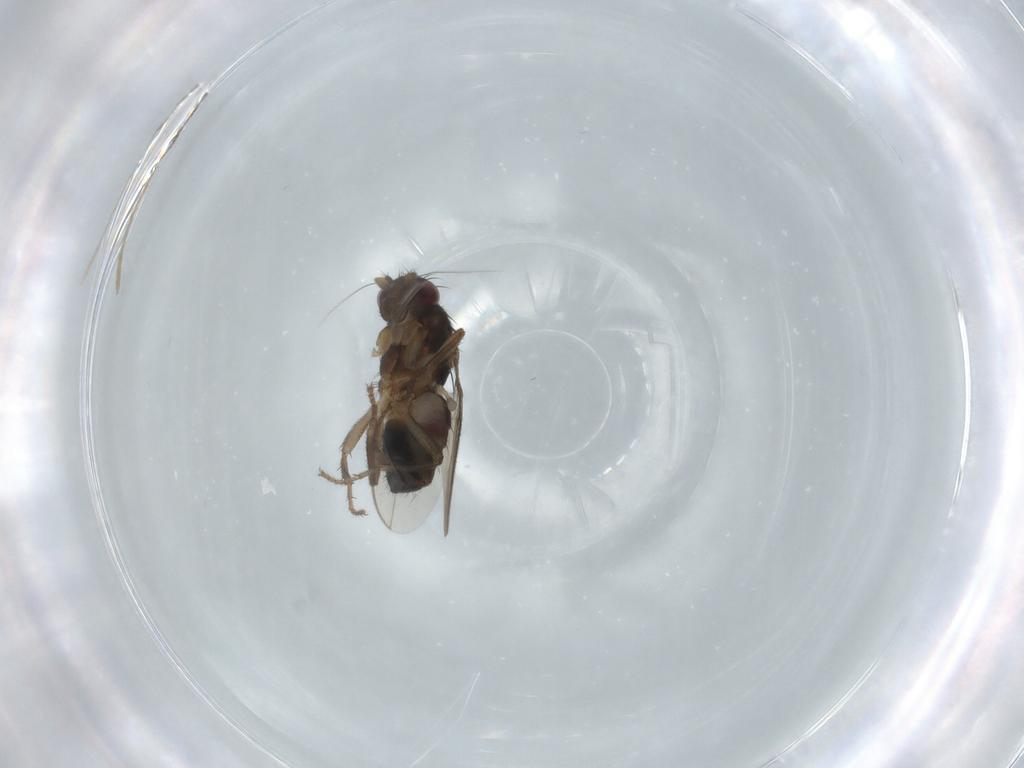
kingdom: Animalia
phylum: Arthropoda
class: Insecta
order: Diptera
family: Sphaeroceridae
